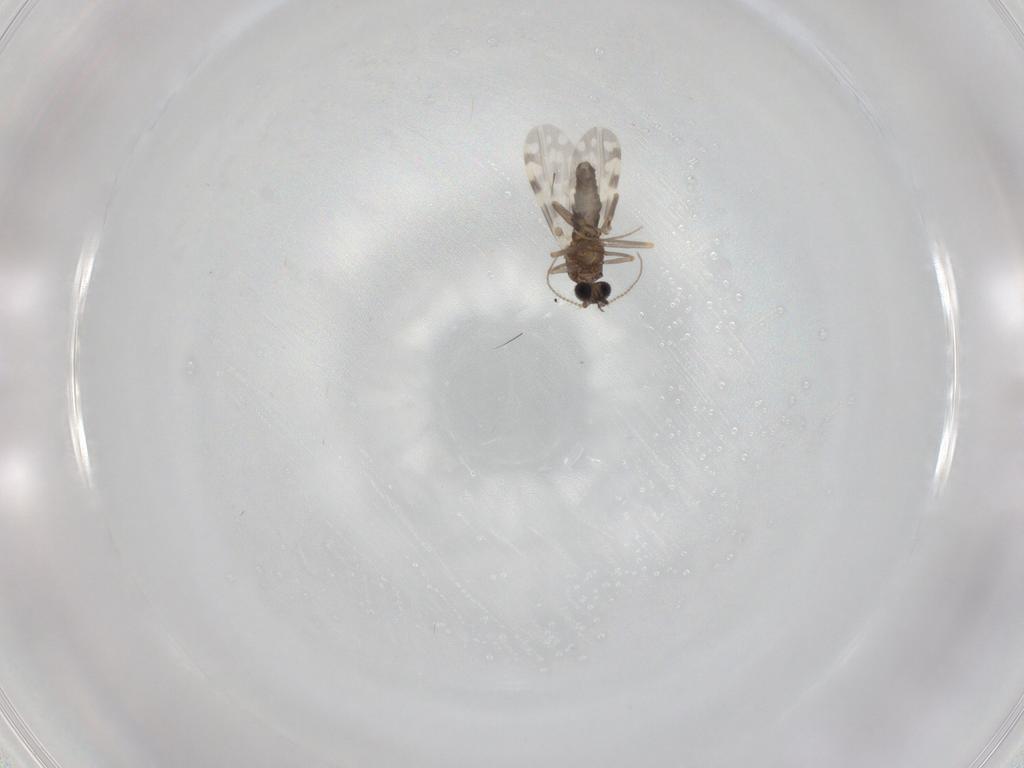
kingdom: Animalia
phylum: Arthropoda
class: Insecta
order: Diptera
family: Ceratopogonidae
